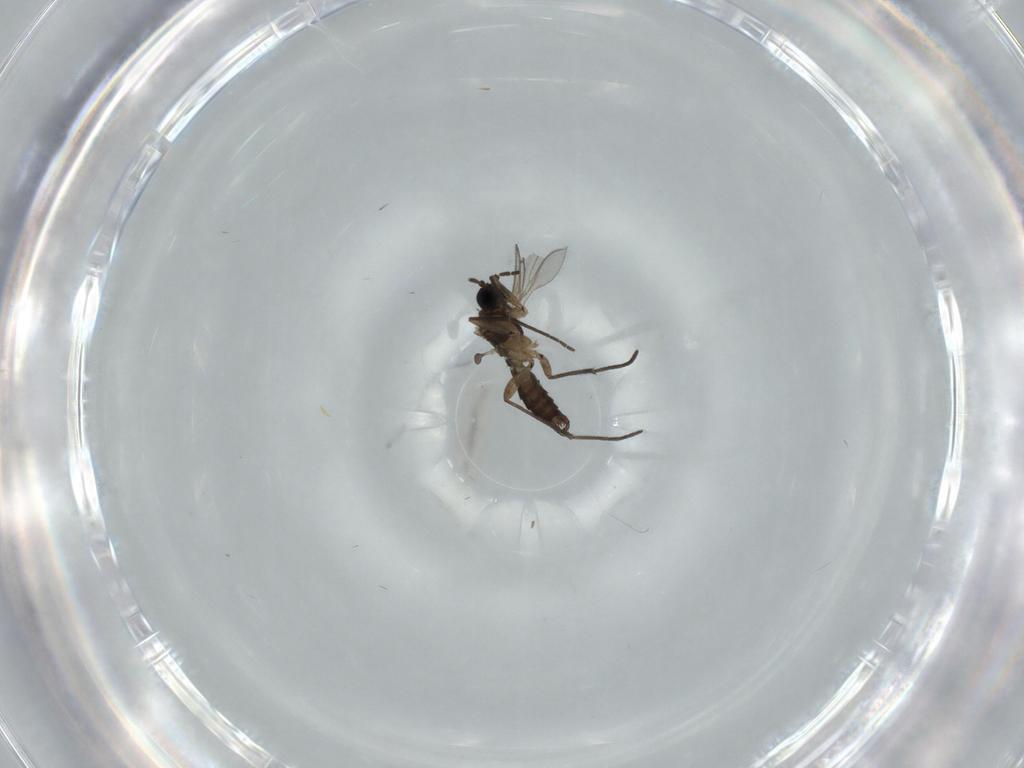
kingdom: Animalia
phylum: Arthropoda
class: Insecta
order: Diptera
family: Sciaridae
